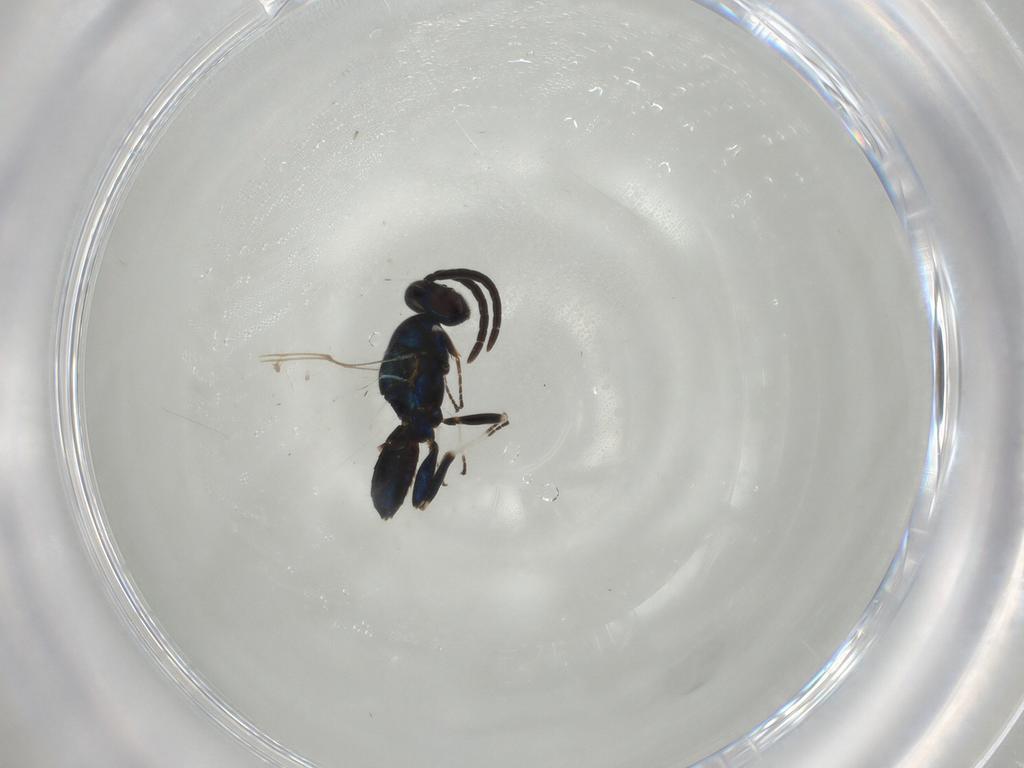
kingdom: Animalia
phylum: Arthropoda
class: Insecta
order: Hymenoptera
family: Eupelmidae
